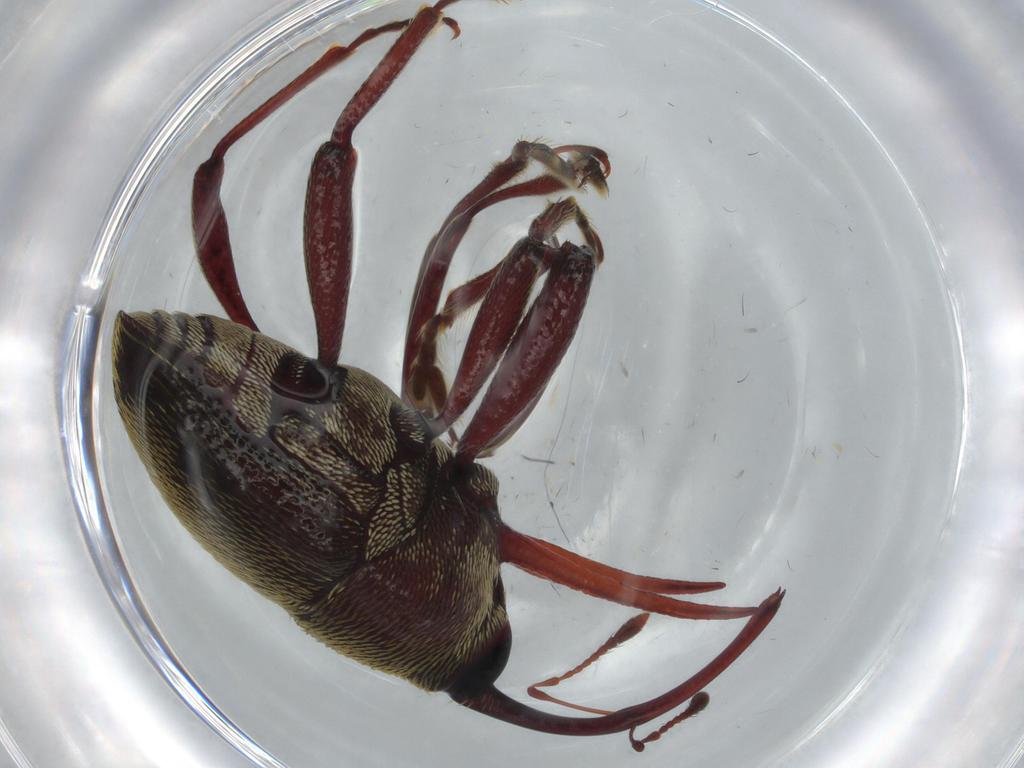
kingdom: Animalia
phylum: Arthropoda
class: Insecta
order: Coleoptera
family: Curculionidae
